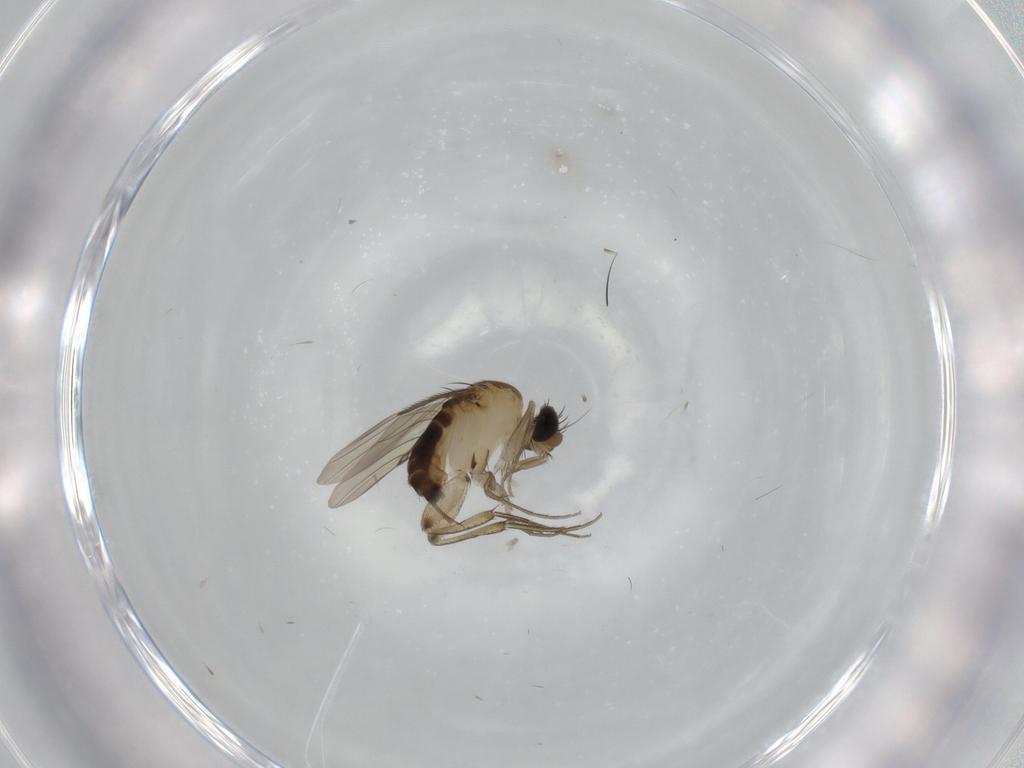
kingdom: Animalia
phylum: Arthropoda
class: Insecta
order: Diptera
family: Phoridae
